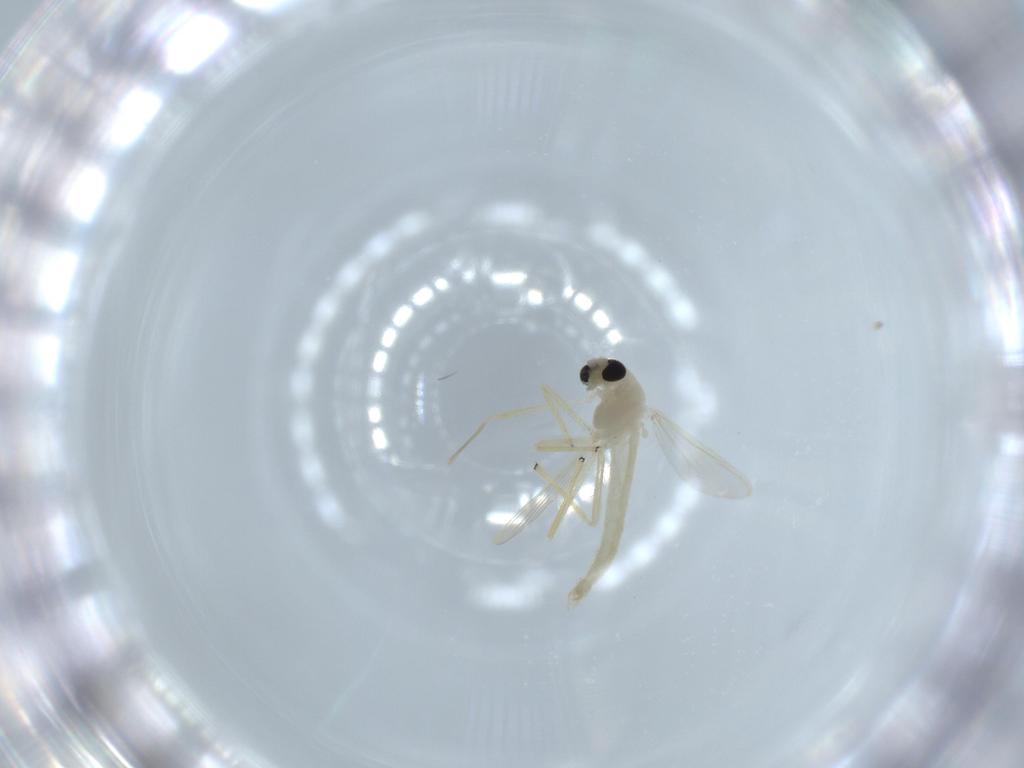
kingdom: Animalia
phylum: Arthropoda
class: Insecta
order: Diptera
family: Chironomidae
